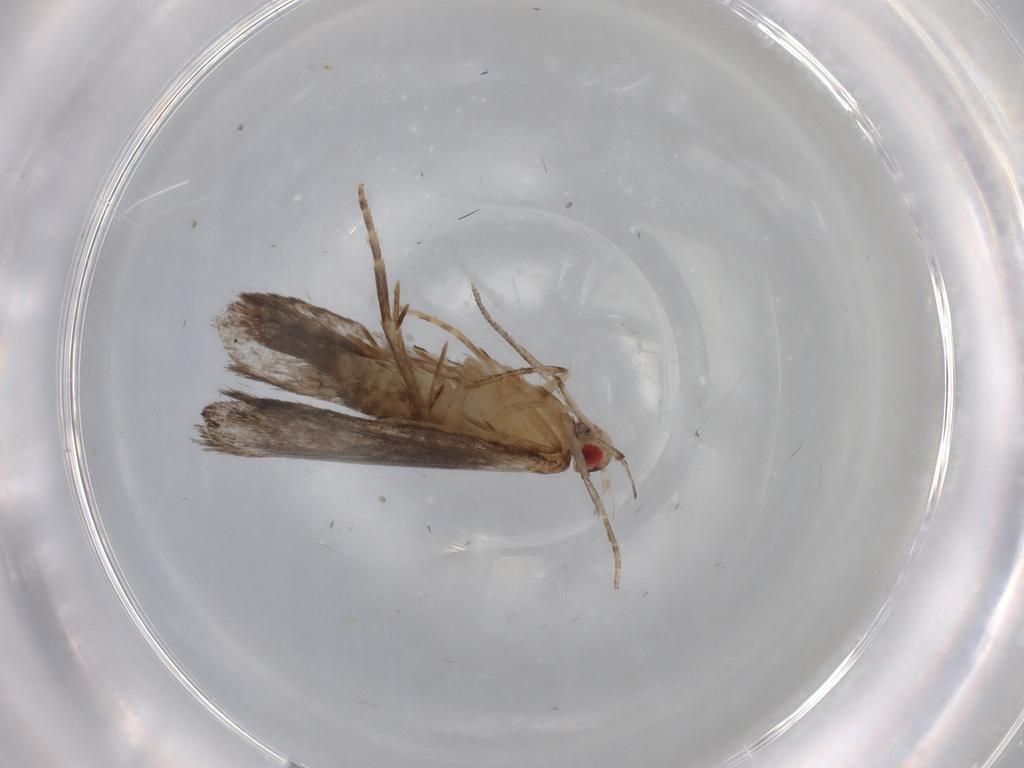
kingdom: Animalia
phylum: Arthropoda
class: Insecta
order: Lepidoptera
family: Gelechiidae
